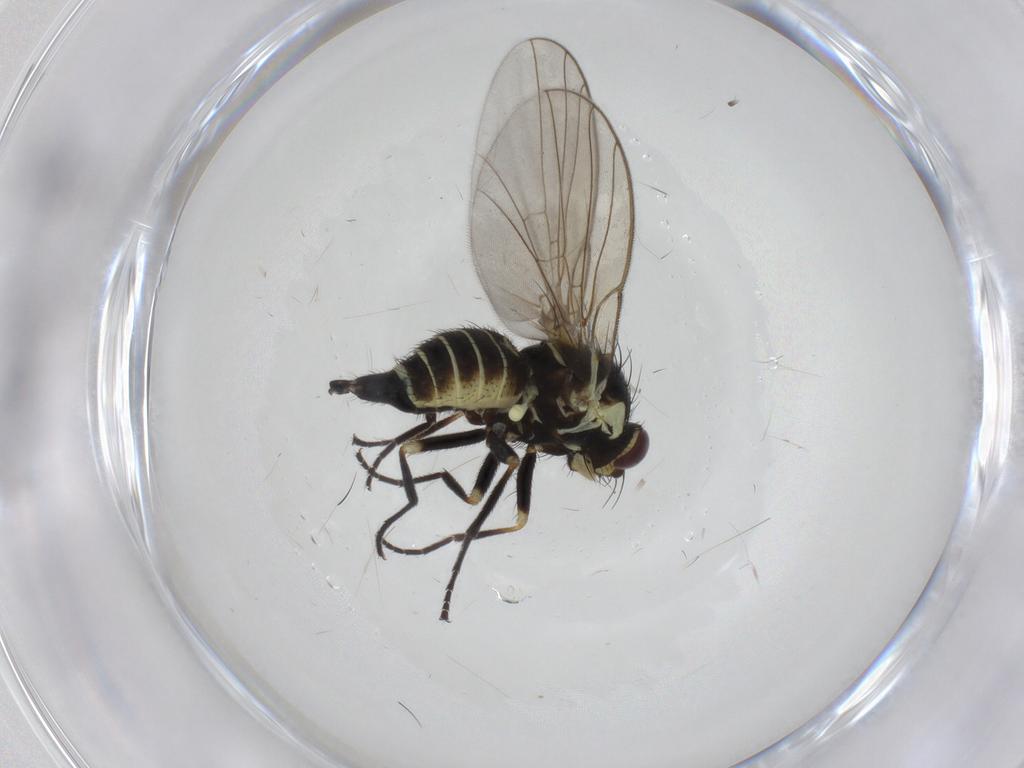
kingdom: Animalia
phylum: Arthropoda
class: Insecta
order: Diptera
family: Agromyzidae
